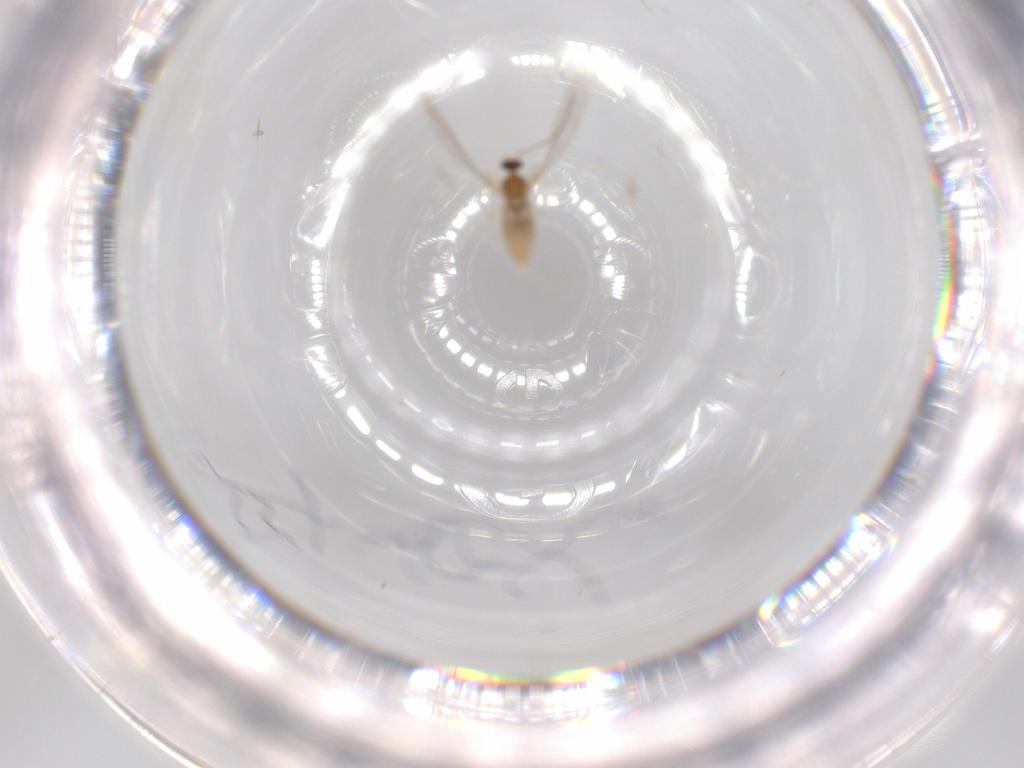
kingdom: Animalia
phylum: Arthropoda
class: Insecta
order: Diptera
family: Cecidomyiidae
